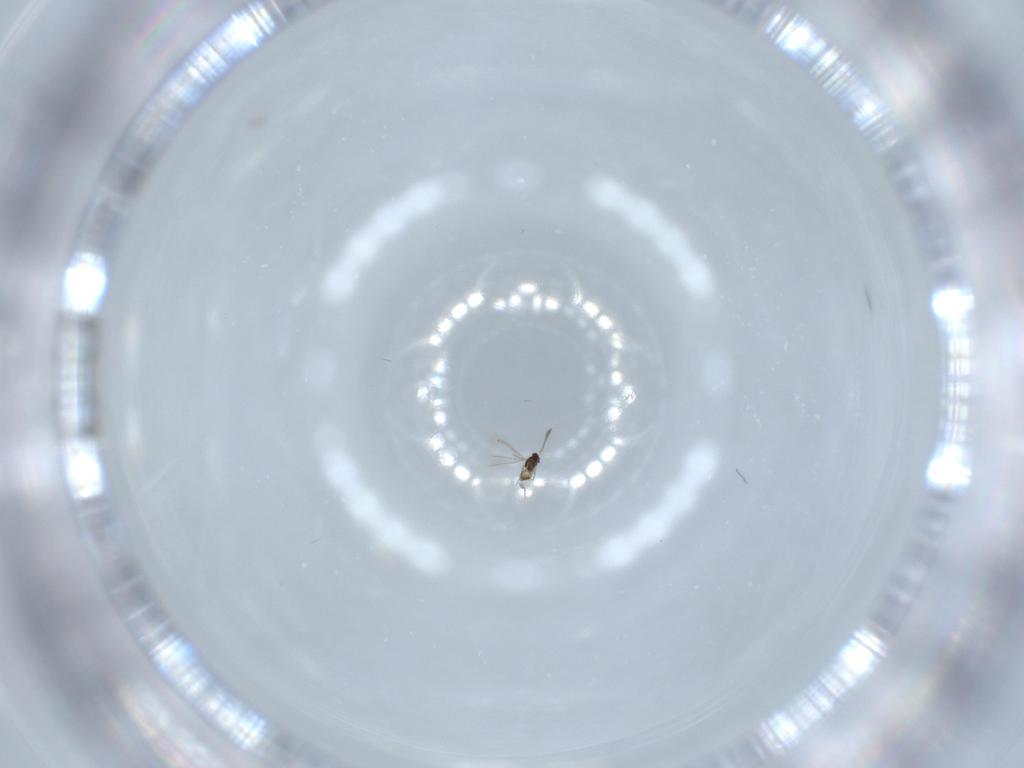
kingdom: Animalia
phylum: Arthropoda
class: Insecta
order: Hymenoptera
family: Mymaridae
